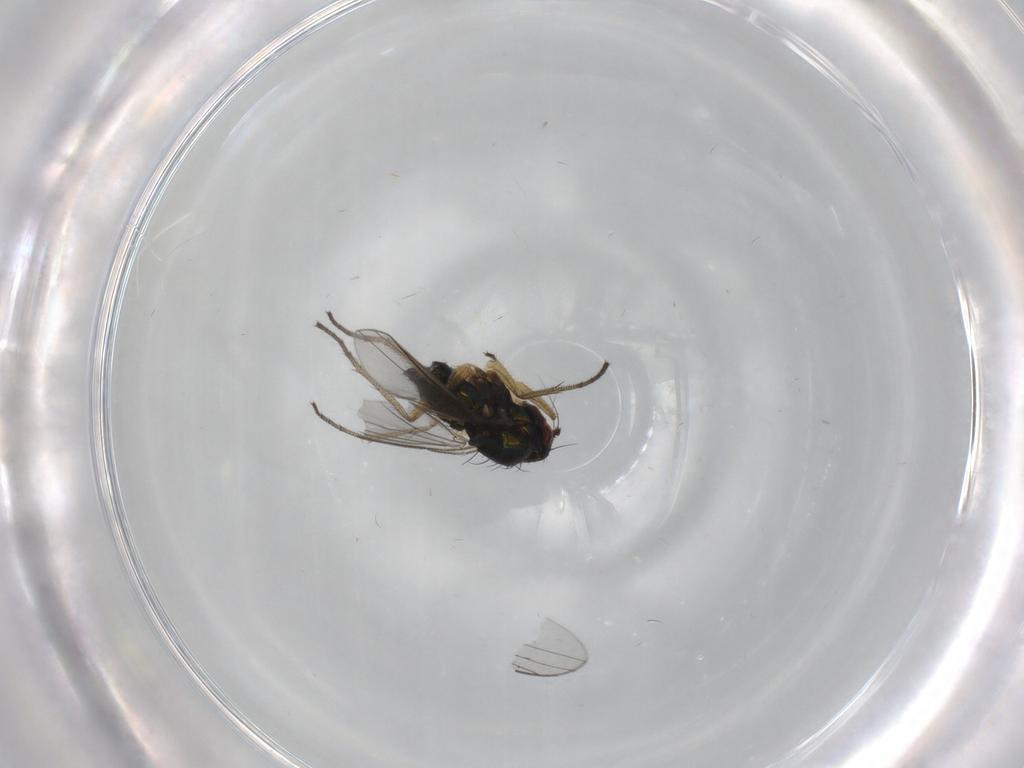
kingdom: Animalia
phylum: Arthropoda
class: Insecta
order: Diptera
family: Dolichopodidae
